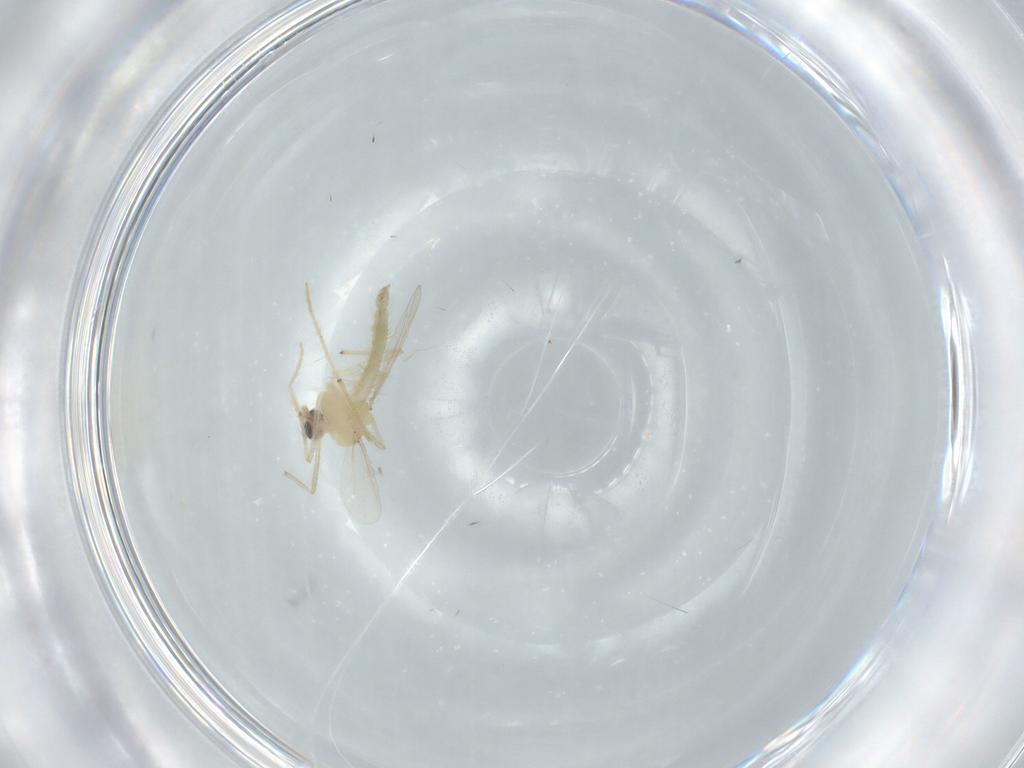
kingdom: Animalia
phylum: Arthropoda
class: Insecta
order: Diptera
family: Chironomidae
